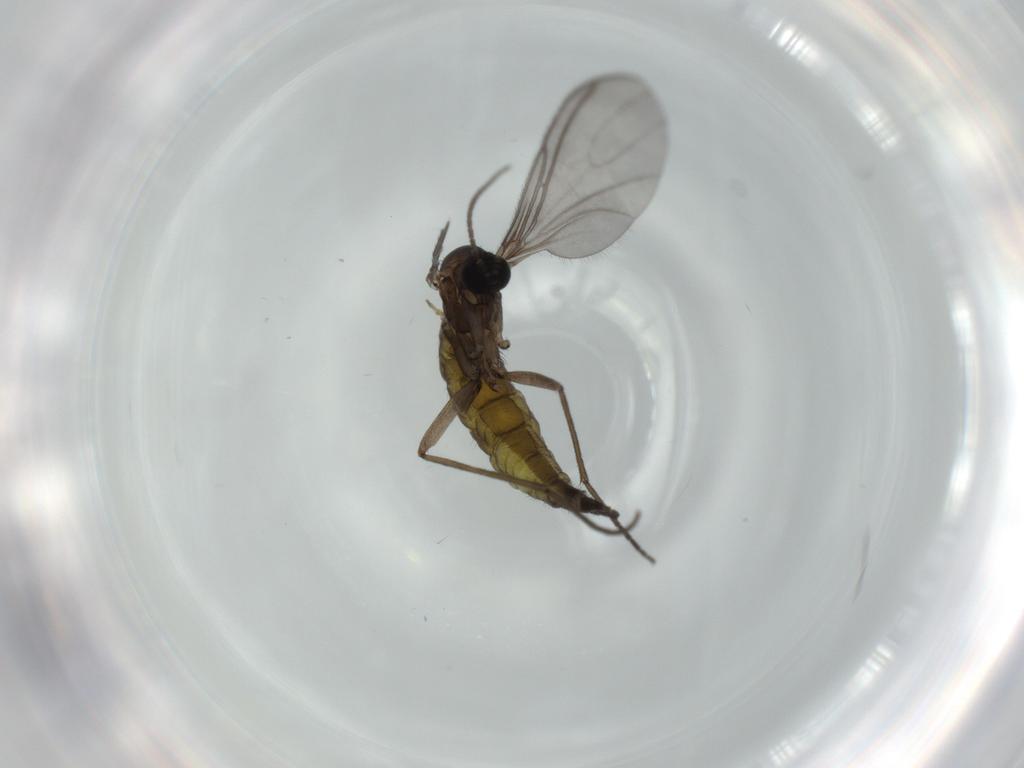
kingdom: Animalia
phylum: Arthropoda
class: Insecta
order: Diptera
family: Sciaridae
